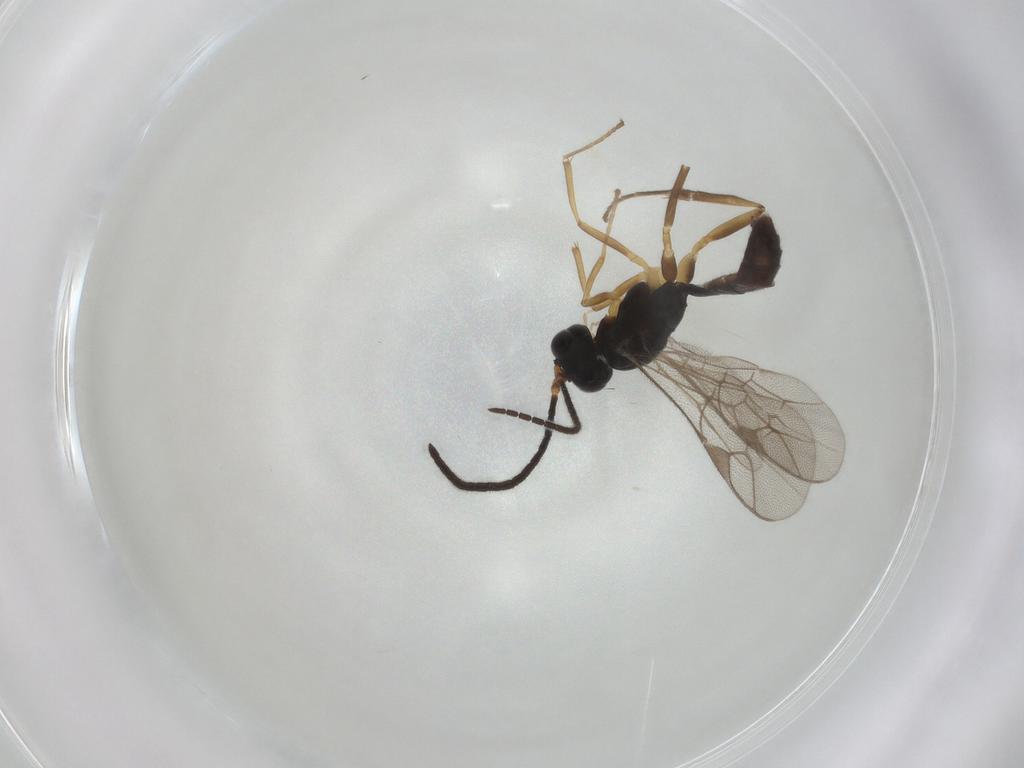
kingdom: Animalia
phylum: Arthropoda
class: Insecta
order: Hymenoptera
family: Ichneumonidae
